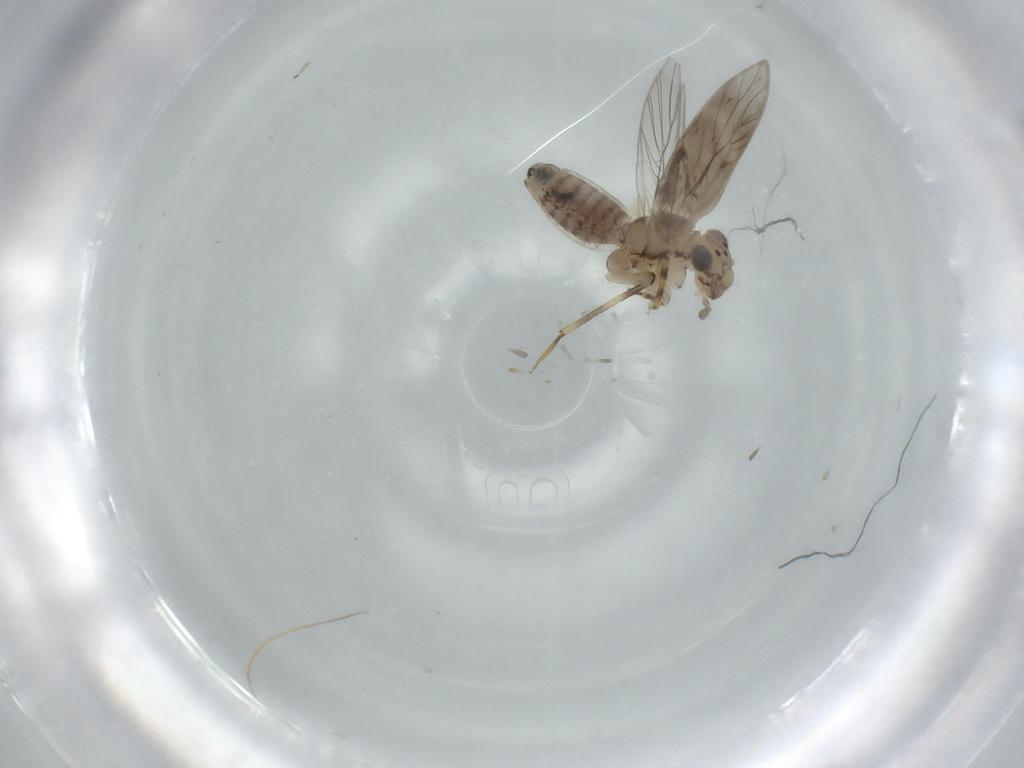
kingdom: Animalia
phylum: Arthropoda
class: Insecta
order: Psocodea
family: Lepidopsocidae
